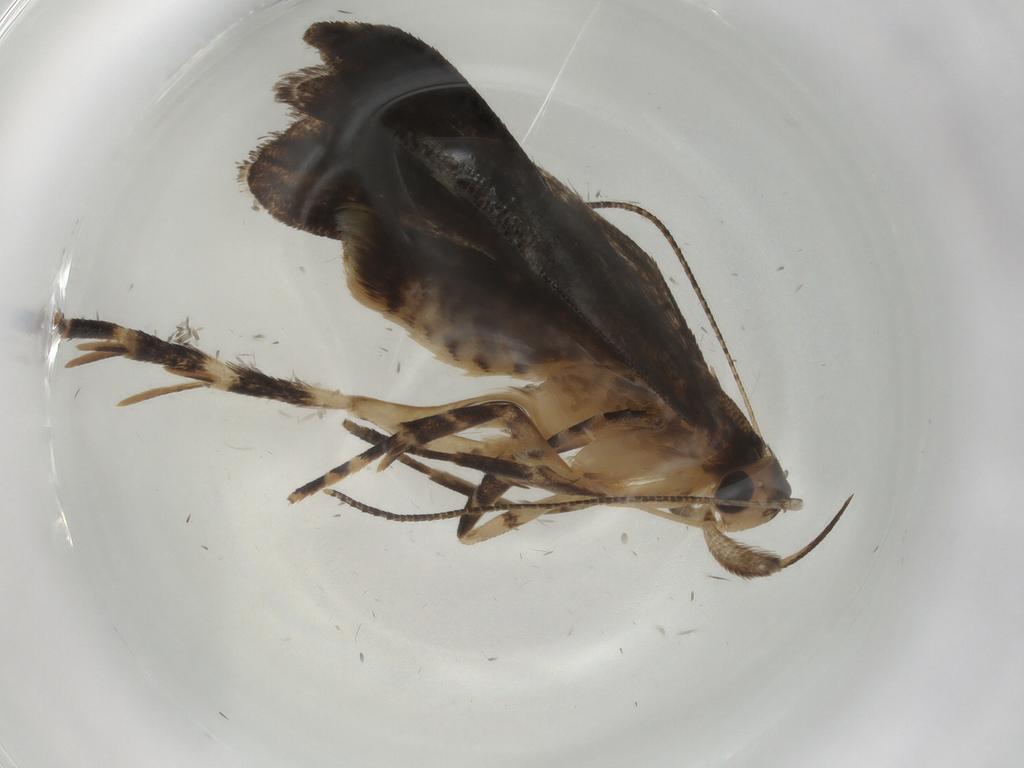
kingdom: Animalia
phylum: Arthropoda
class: Insecta
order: Lepidoptera
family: Cosmopterigidae
